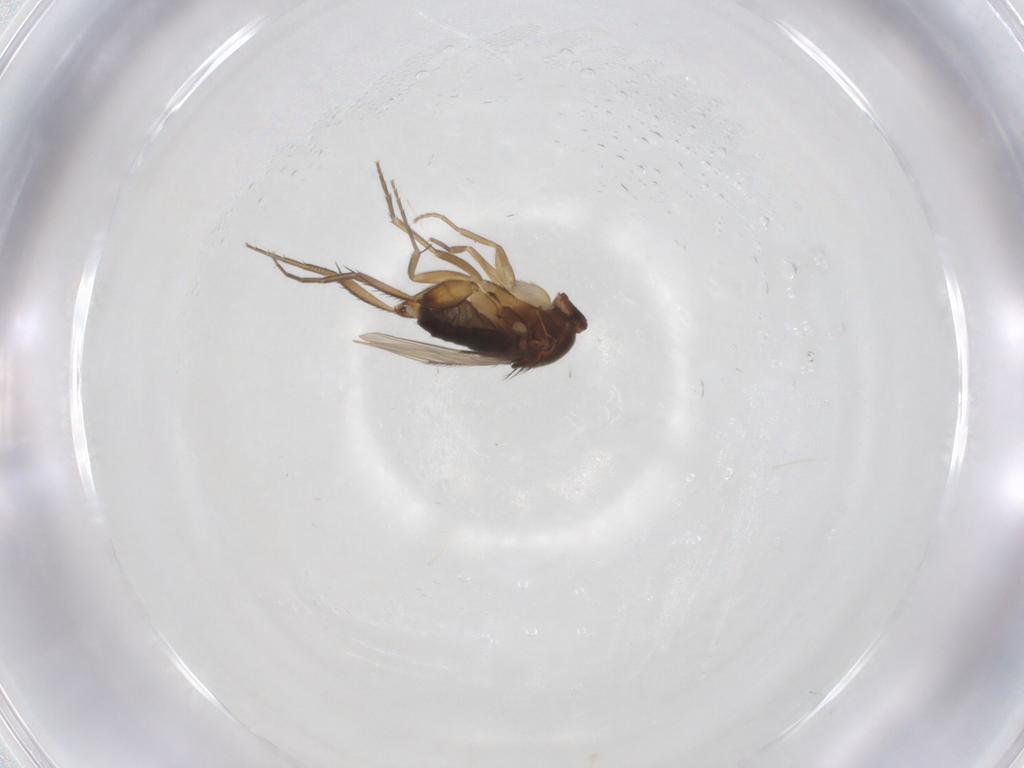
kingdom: Animalia
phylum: Arthropoda
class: Insecta
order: Diptera
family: Phoridae
